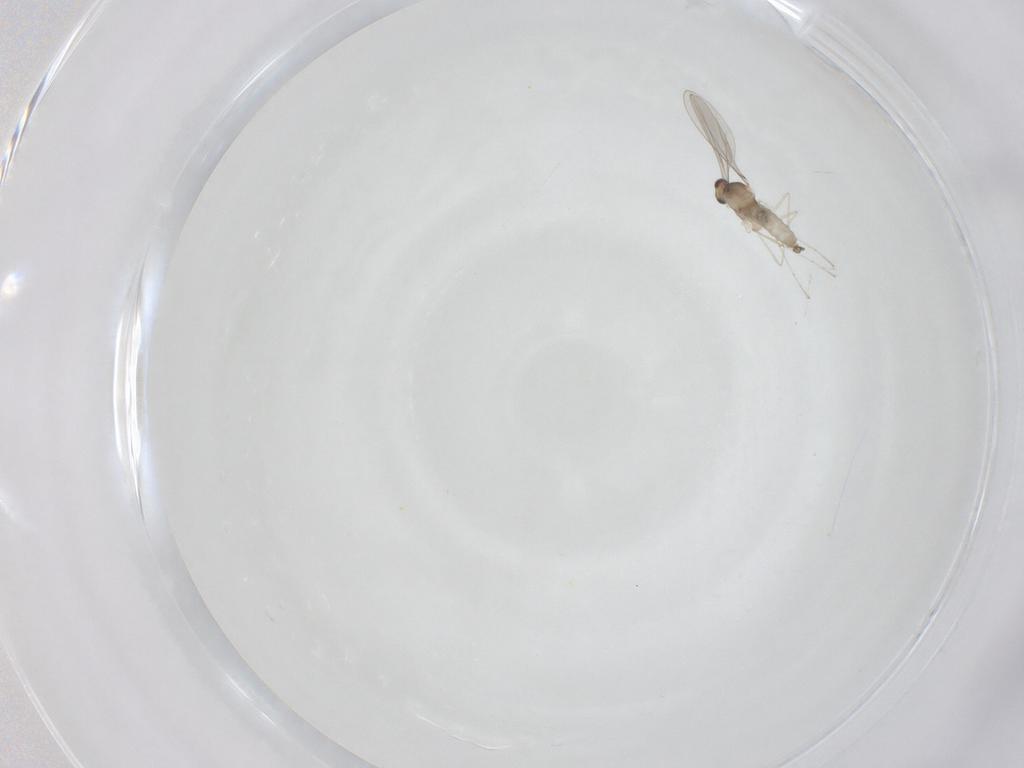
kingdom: Animalia
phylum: Arthropoda
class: Insecta
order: Diptera
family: Cecidomyiidae
